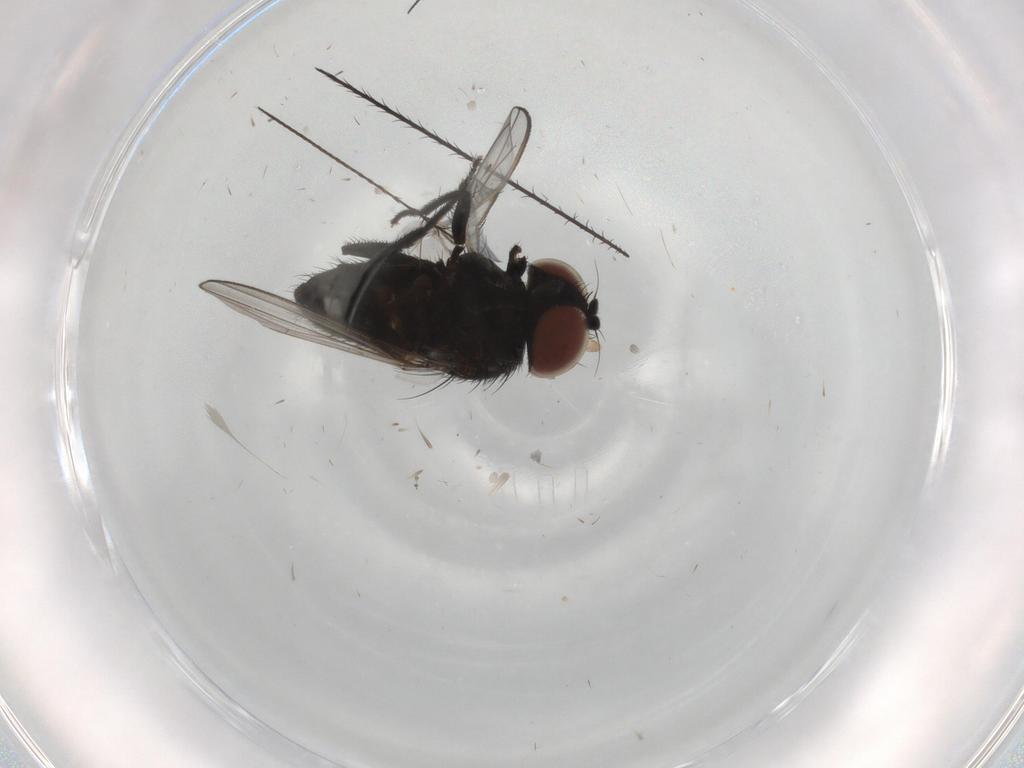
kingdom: Animalia
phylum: Arthropoda
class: Insecta
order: Diptera
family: Milichiidae
